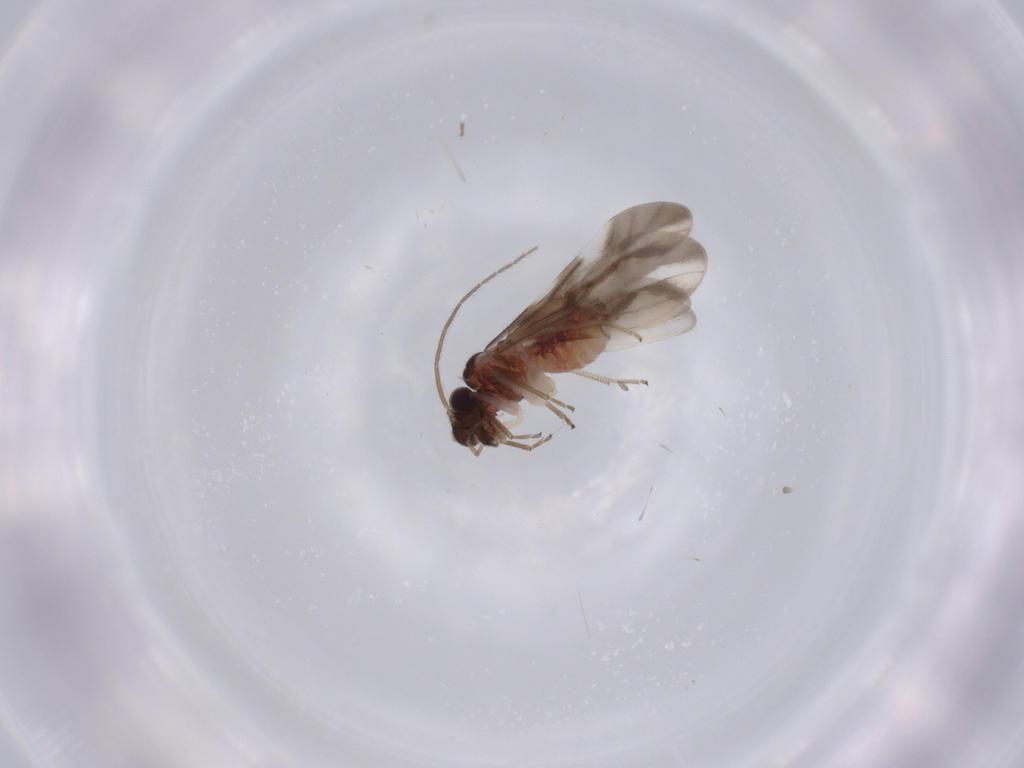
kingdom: Animalia
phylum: Arthropoda
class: Insecta
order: Psocodea
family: Caeciliusidae
